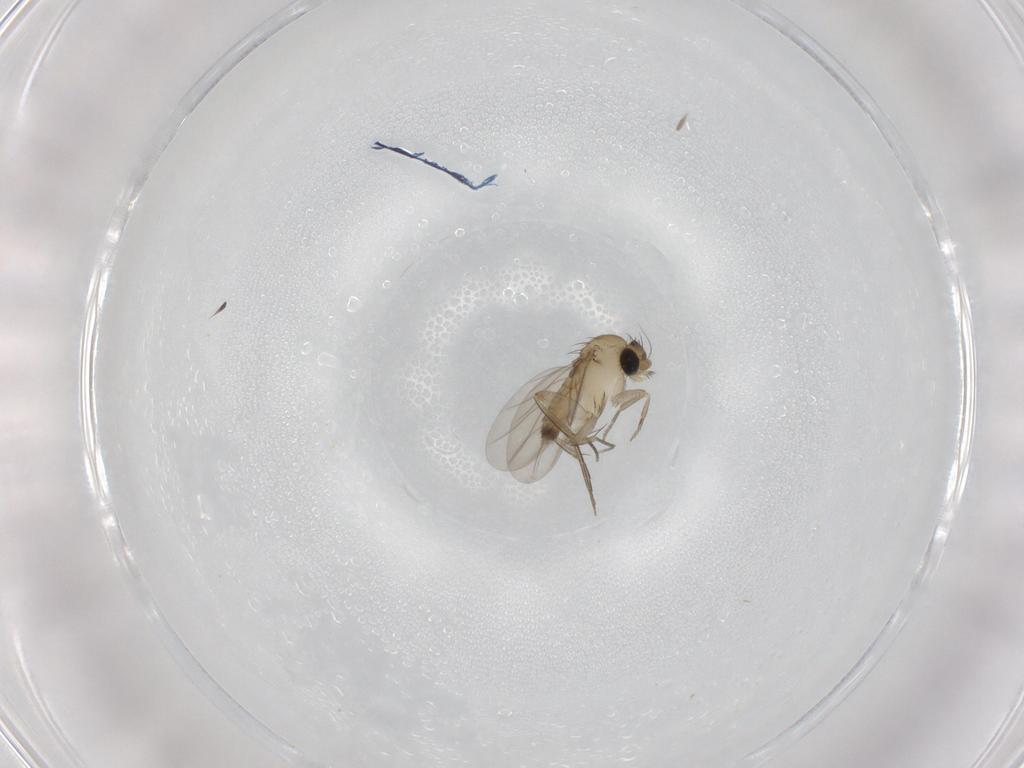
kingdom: Animalia
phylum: Arthropoda
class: Insecta
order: Diptera
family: Phoridae
